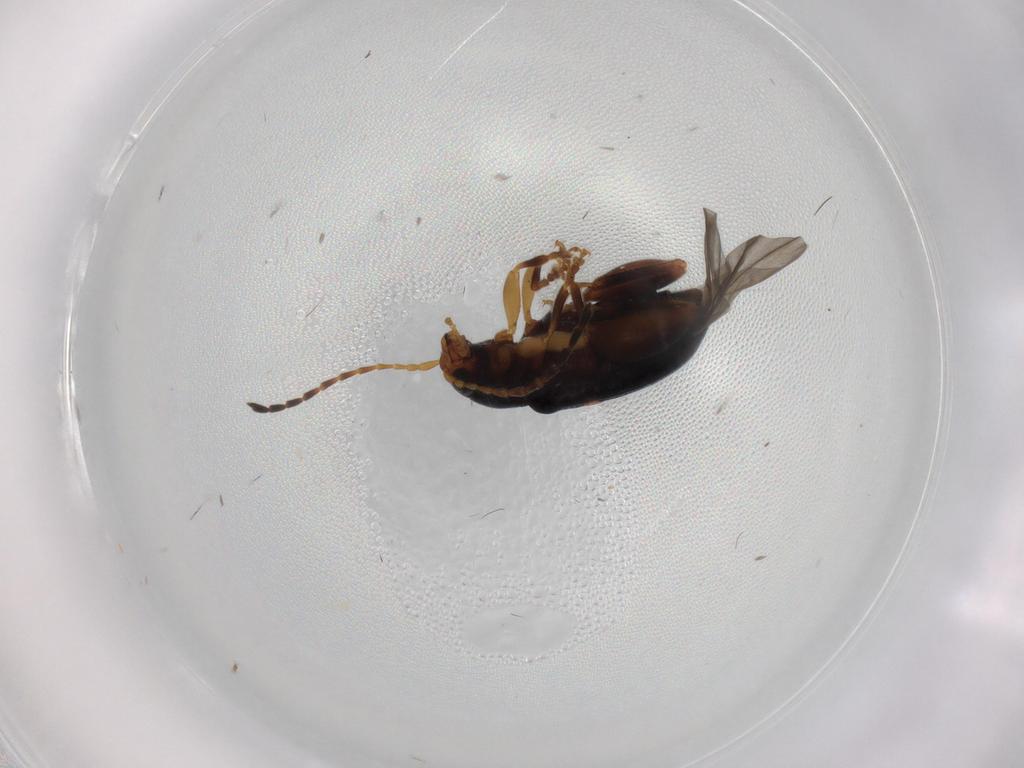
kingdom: Animalia
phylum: Arthropoda
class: Insecta
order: Coleoptera
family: Chrysomelidae
